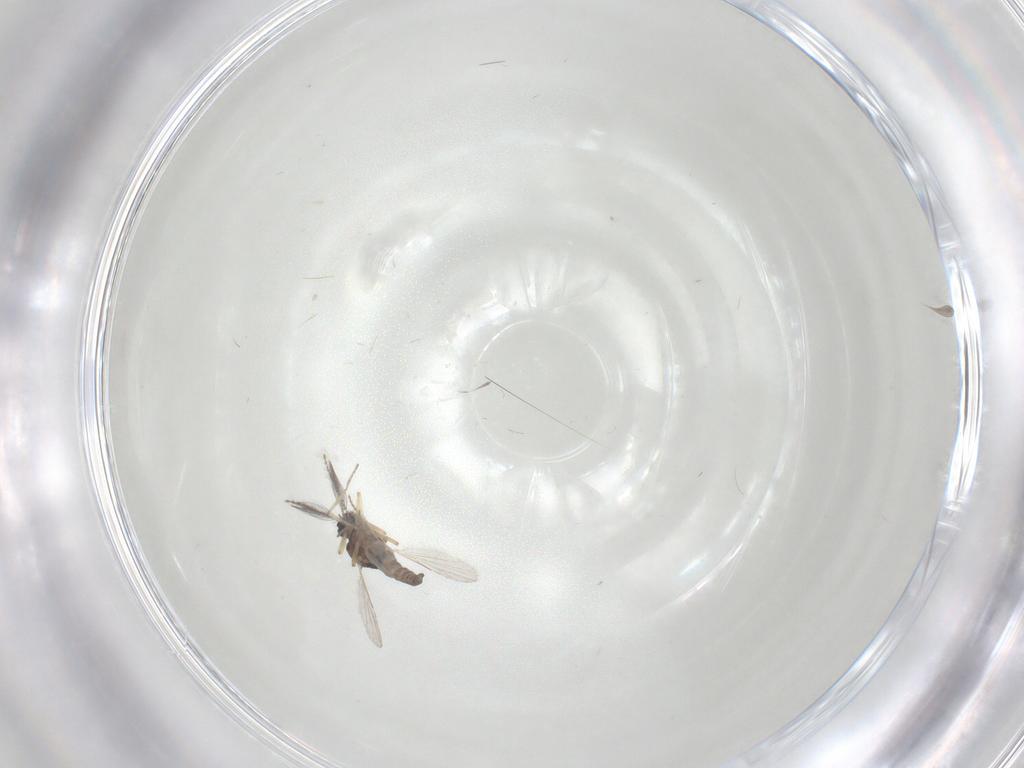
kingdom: Animalia
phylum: Arthropoda
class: Insecta
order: Diptera
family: Ceratopogonidae
